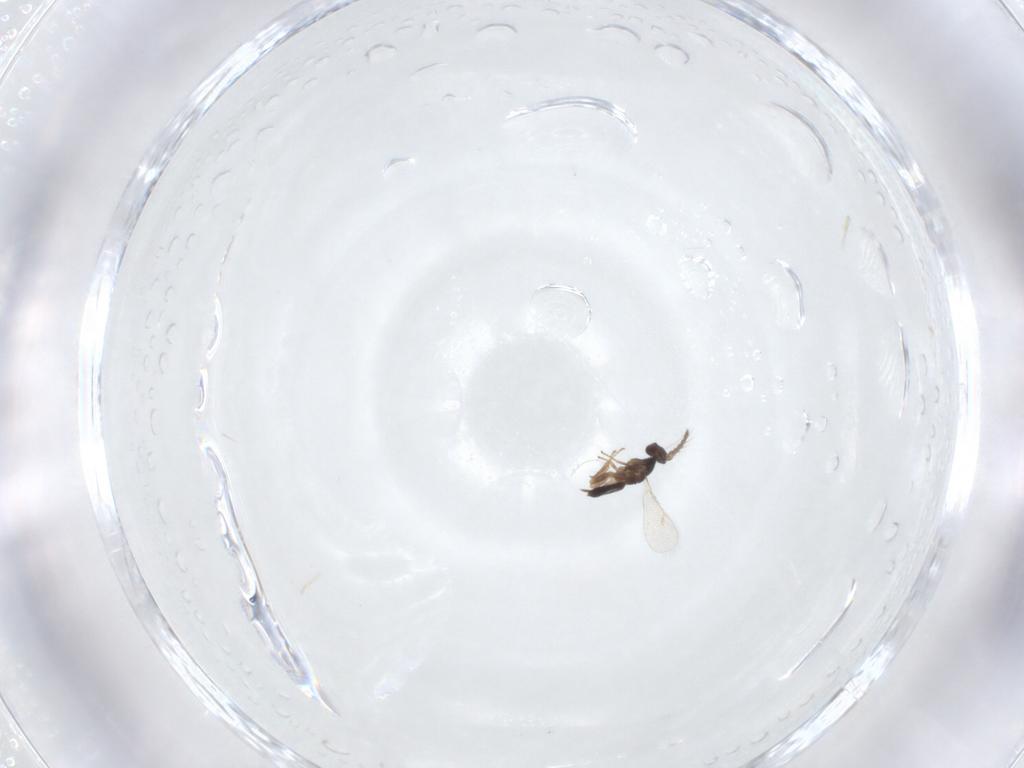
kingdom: Animalia
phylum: Arthropoda
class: Insecta
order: Hymenoptera
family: Eulophidae
